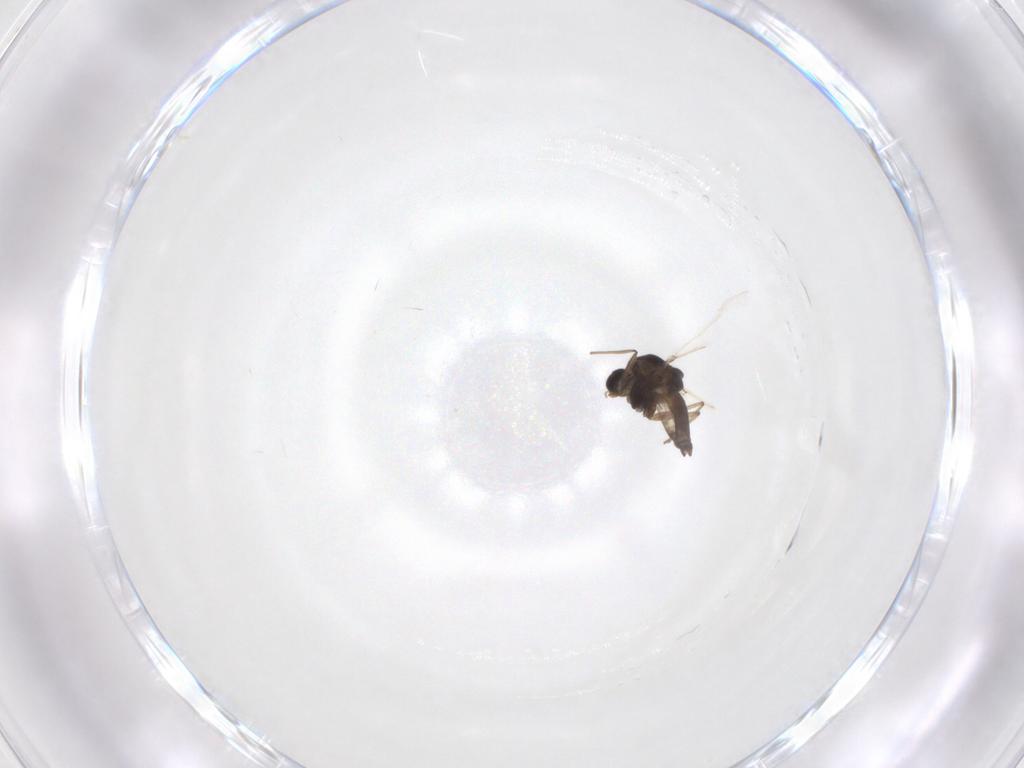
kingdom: Animalia
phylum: Arthropoda
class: Insecta
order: Diptera
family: Chironomidae
